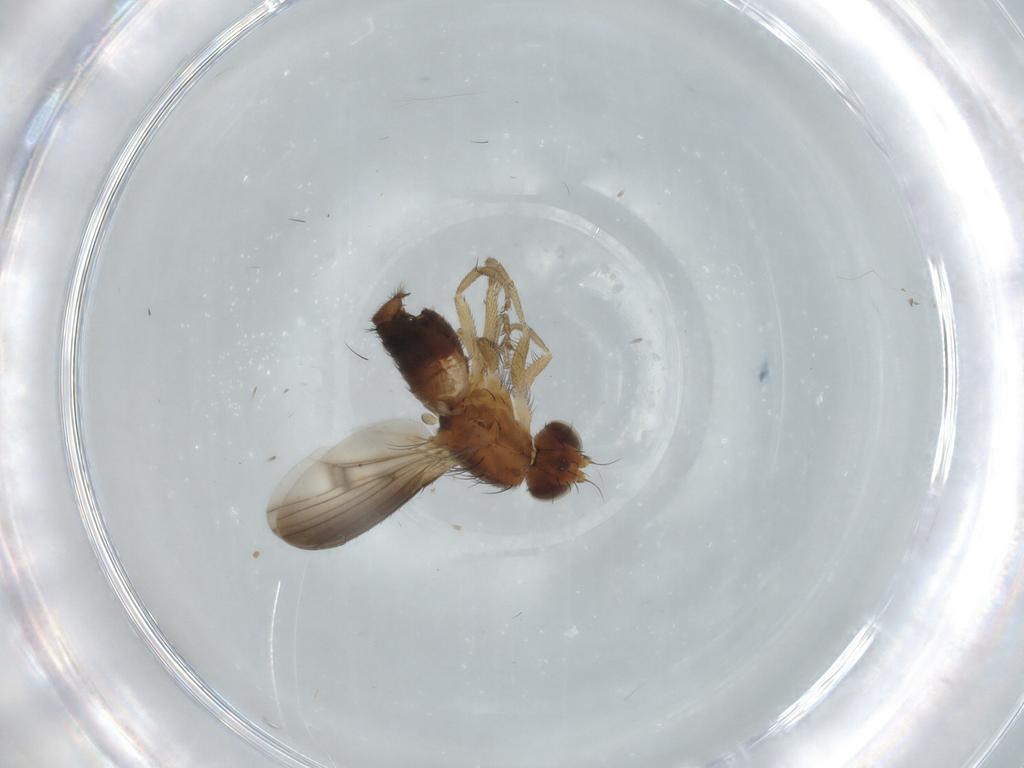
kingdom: Animalia
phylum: Arthropoda
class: Insecta
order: Diptera
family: Heleomyzidae
